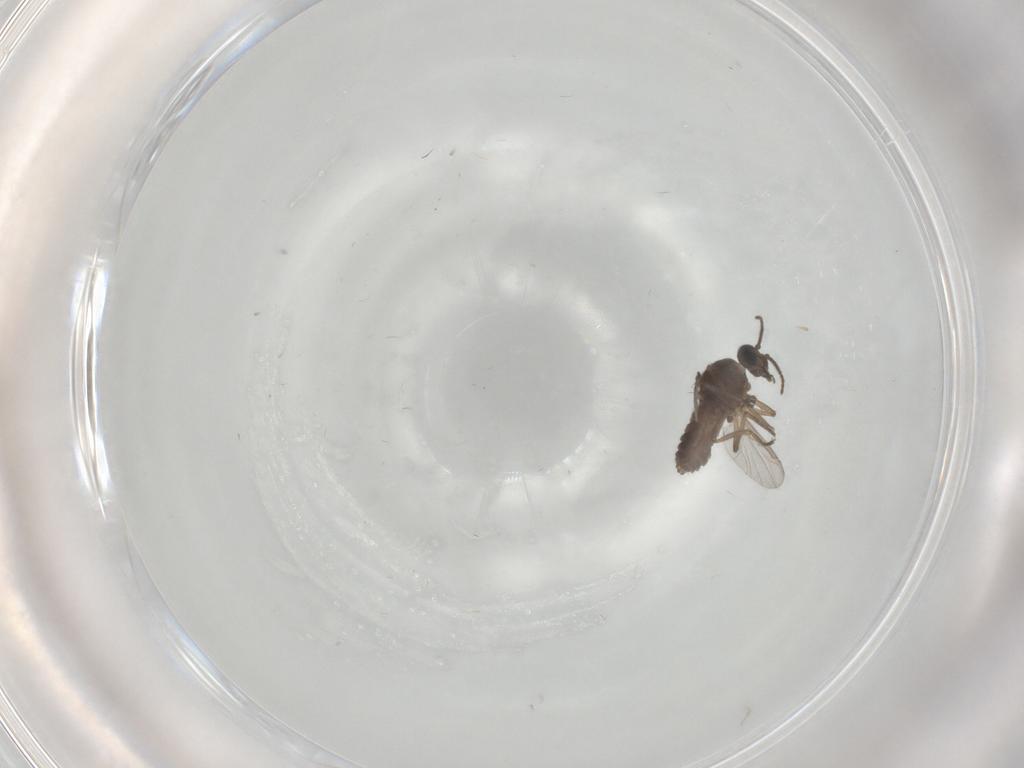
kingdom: Animalia
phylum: Arthropoda
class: Insecta
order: Diptera
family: Ceratopogonidae
